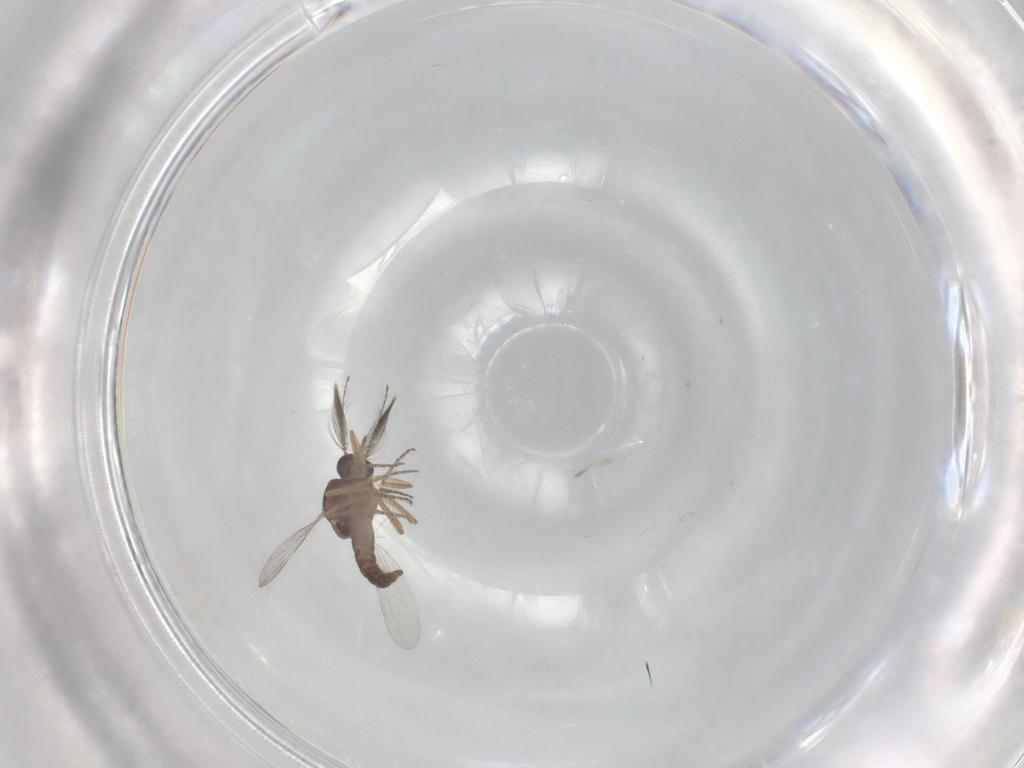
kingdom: Animalia
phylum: Arthropoda
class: Insecta
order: Diptera
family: Ceratopogonidae
